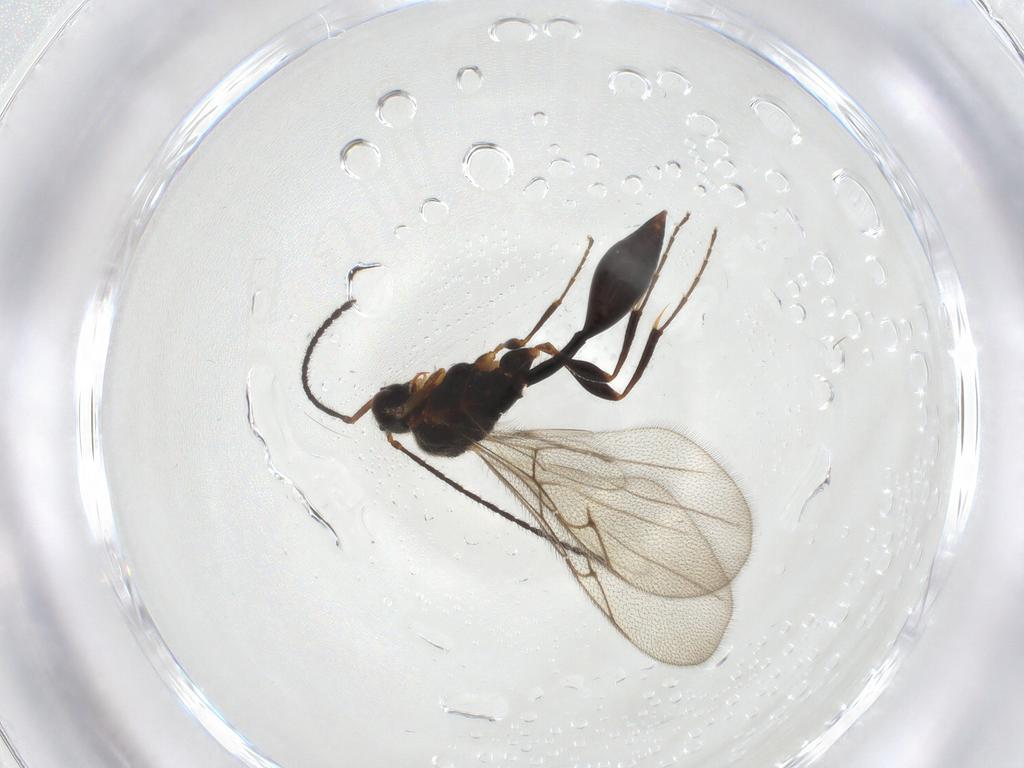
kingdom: Animalia
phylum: Arthropoda
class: Insecta
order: Hymenoptera
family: Diapriidae
